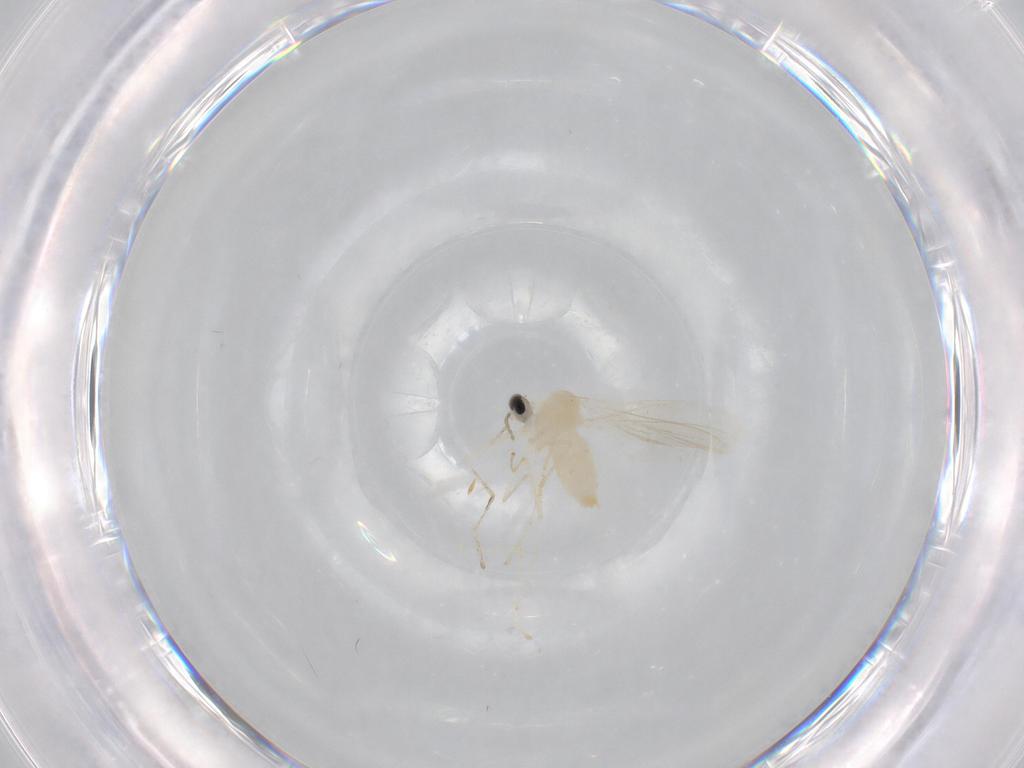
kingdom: Animalia
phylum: Arthropoda
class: Insecta
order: Diptera
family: Cecidomyiidae
